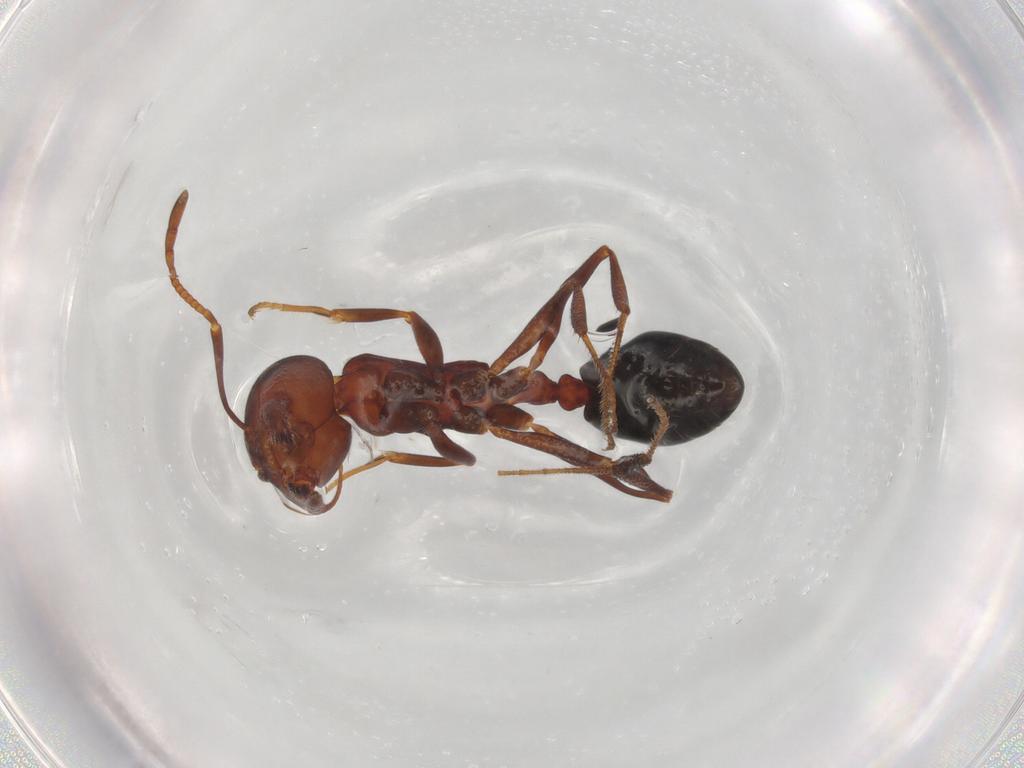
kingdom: Animalia
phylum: Arthropoda
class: Insecta
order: Hymenoptera
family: Formicidae
